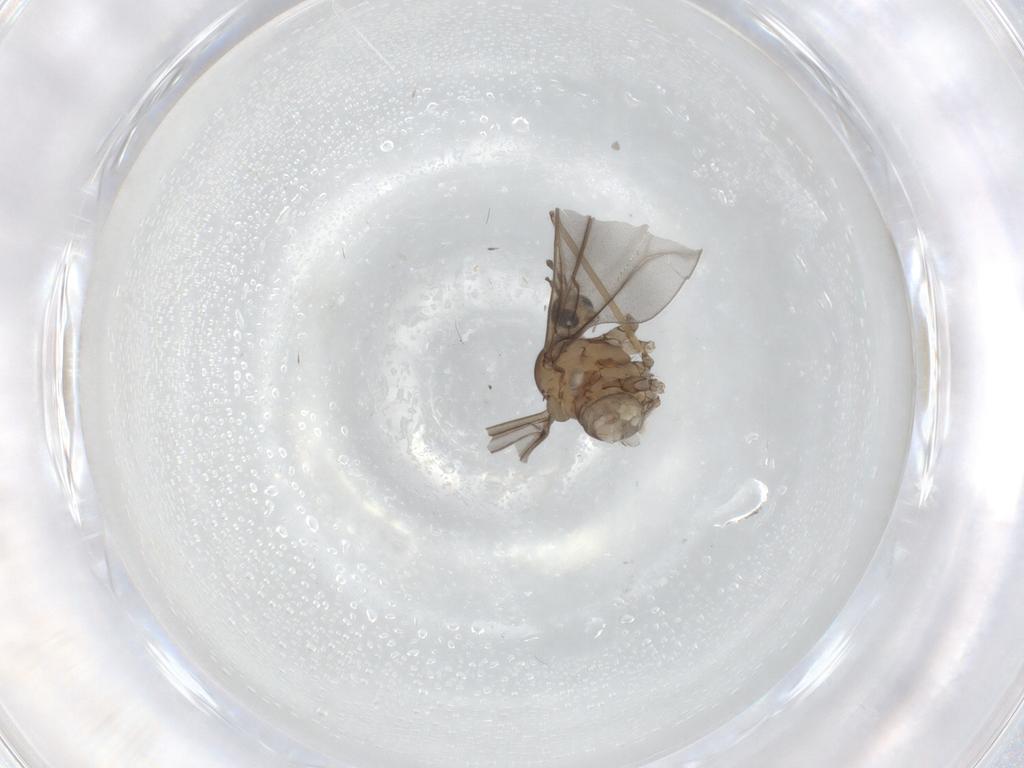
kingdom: Animalia
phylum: Arthropoda
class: Insecta
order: Diptera
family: Cecidomyiidae
